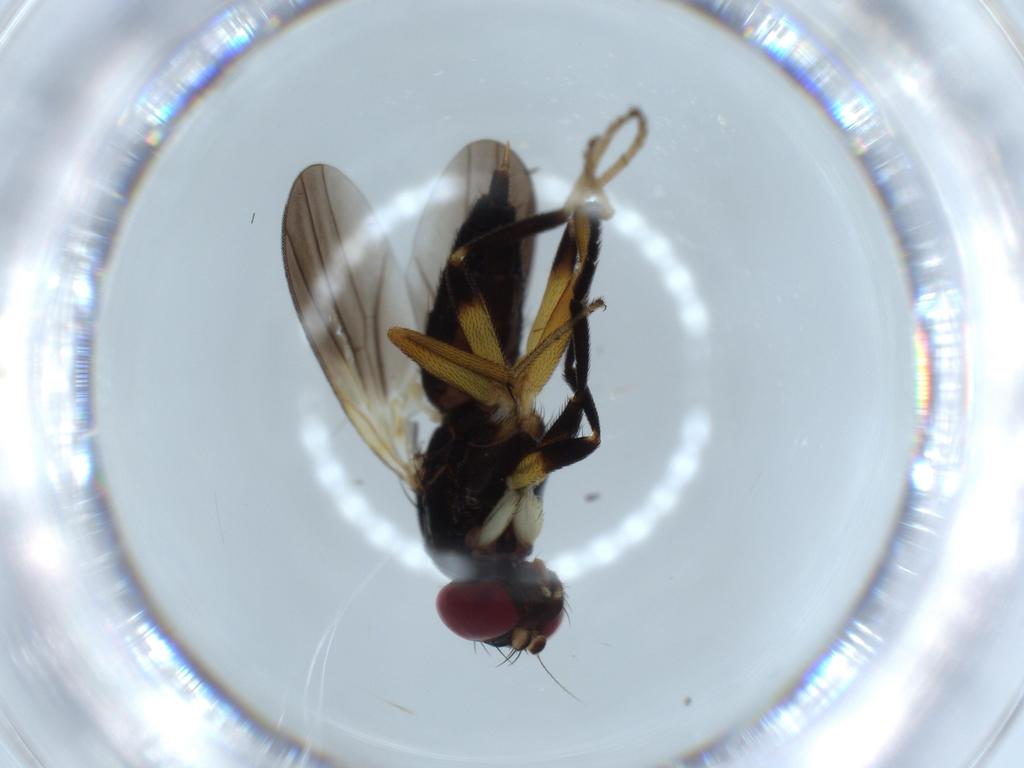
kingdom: Animalia
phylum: Arthropoda
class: Insecta
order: Diptera
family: Clusiidae
